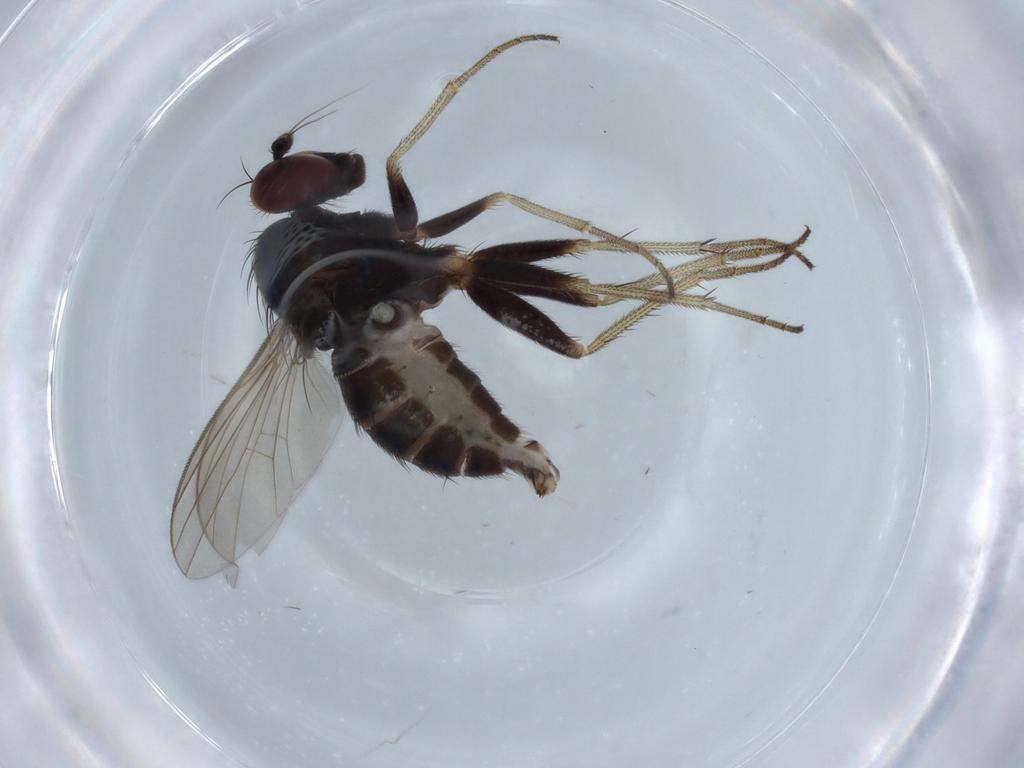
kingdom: Animalia
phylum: Arthropoda
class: Insecta
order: Diptera
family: Dolichopodidae
